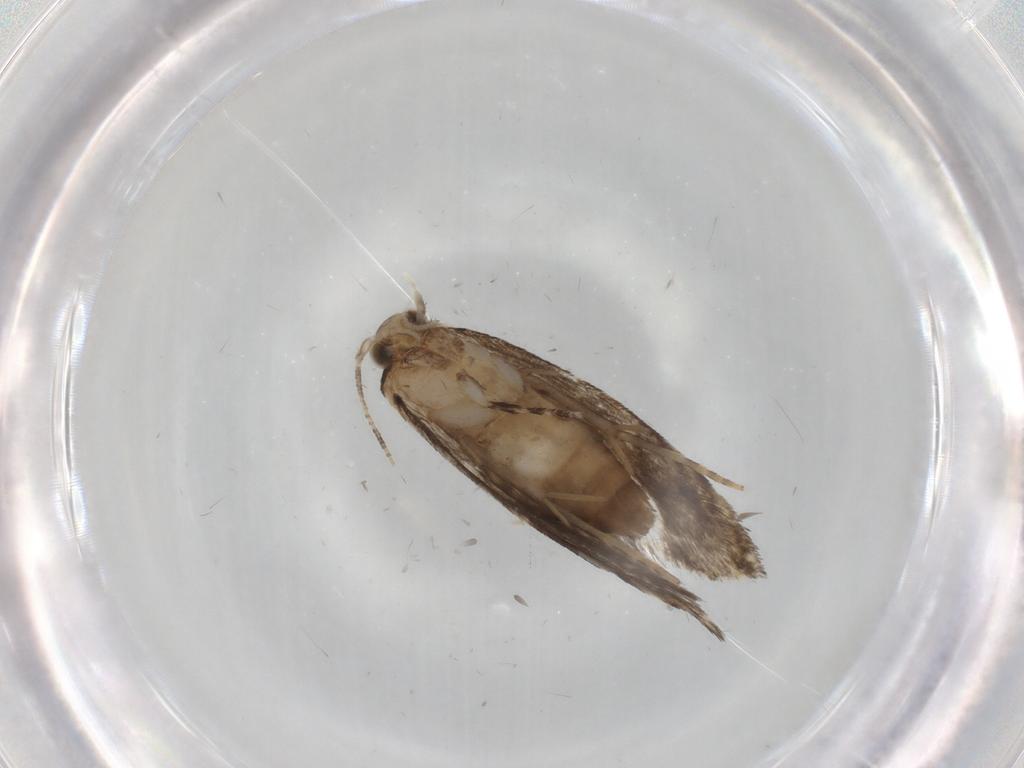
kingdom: Animalia
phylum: Arthropoda
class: Insecta
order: Lepidoptera
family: Tineidae
